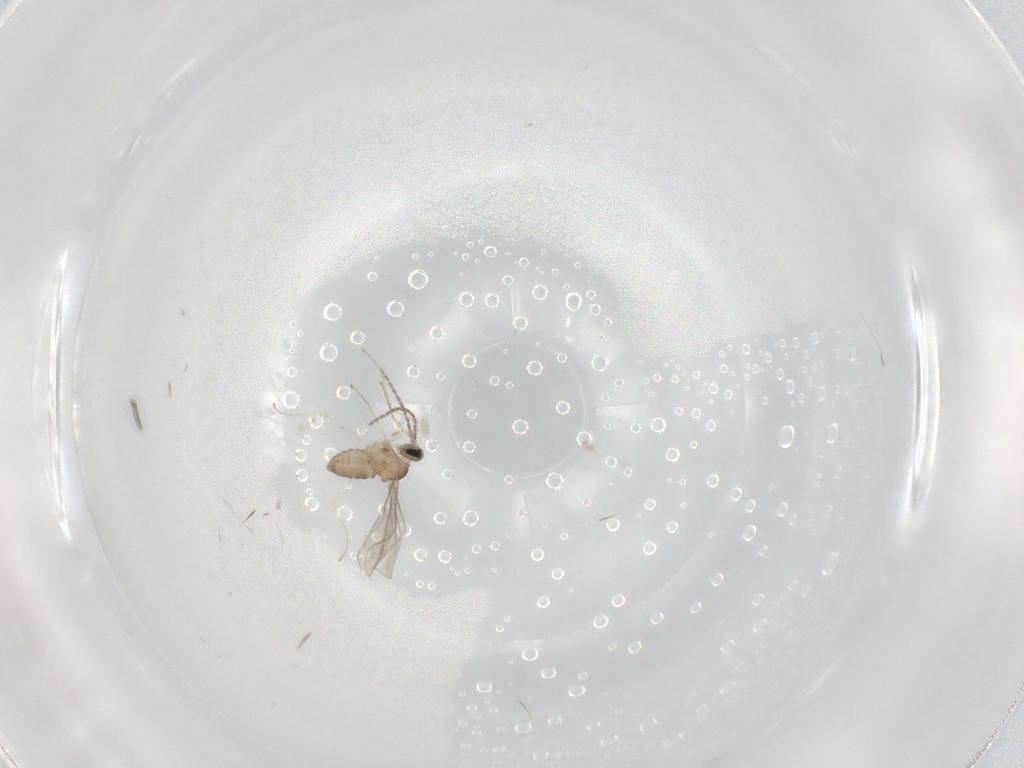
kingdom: Animalia
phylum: Arthropoda
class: Insecta
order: Diptera
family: Cecidomyiidae
